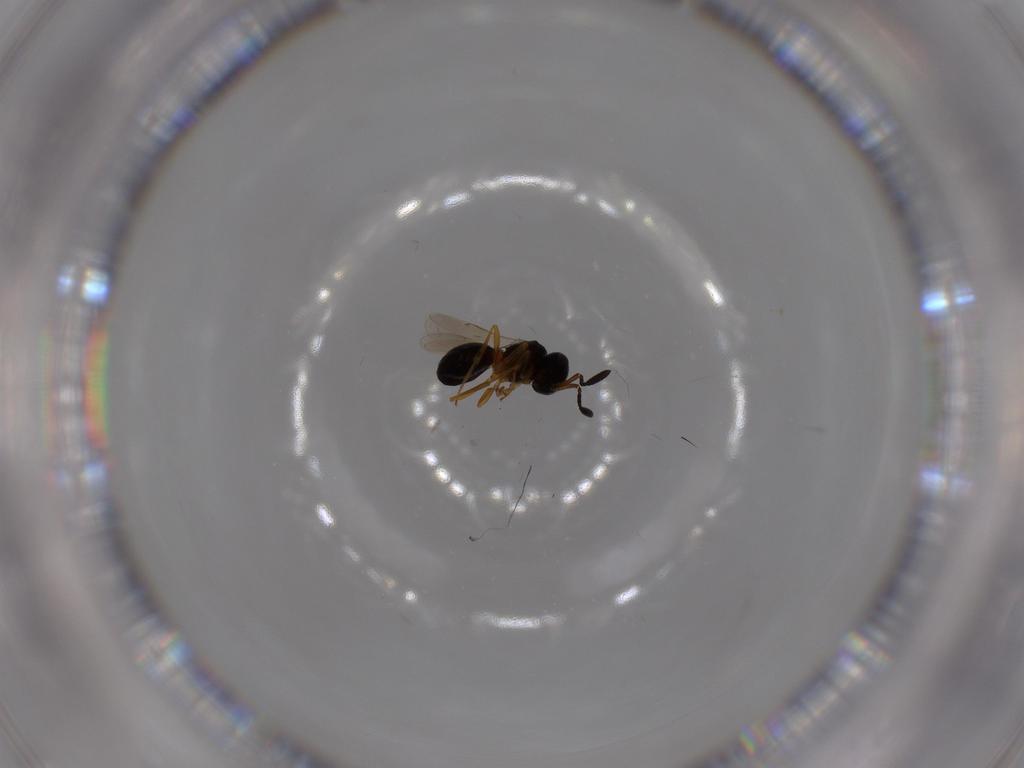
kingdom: Animalia
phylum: Arthropoda
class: Insecta
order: Hymenoptera
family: Scelionidae
